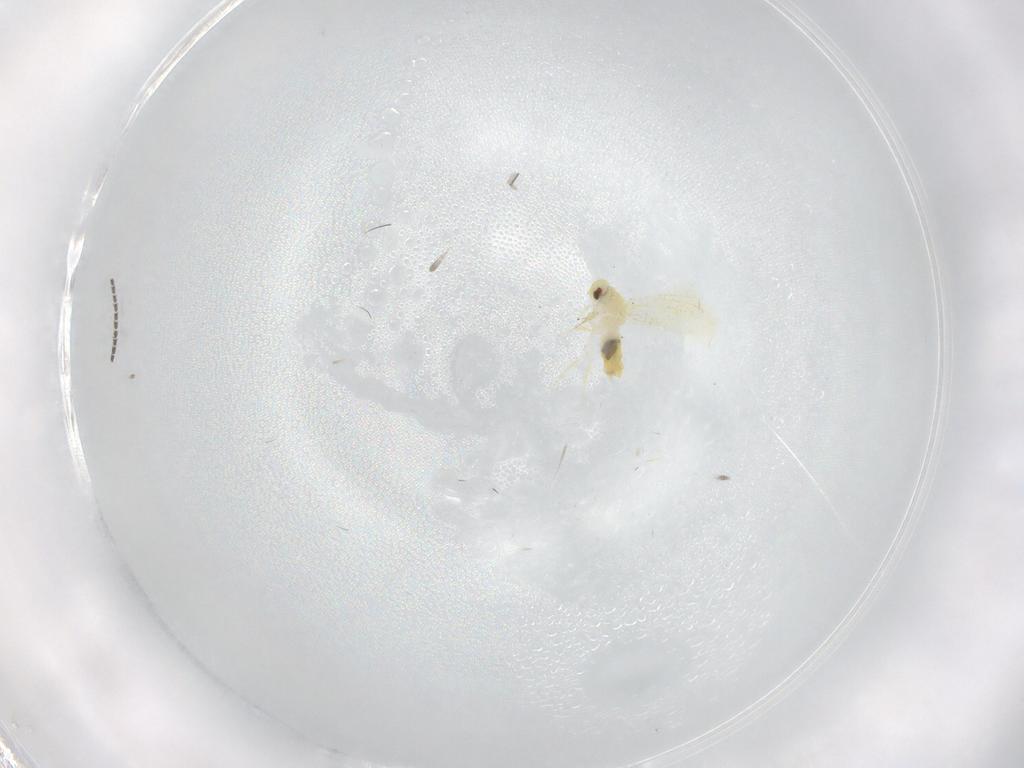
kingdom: Animalia
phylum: Arthropoda
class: Insecta
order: Hemiptera
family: Aleyrodidae
